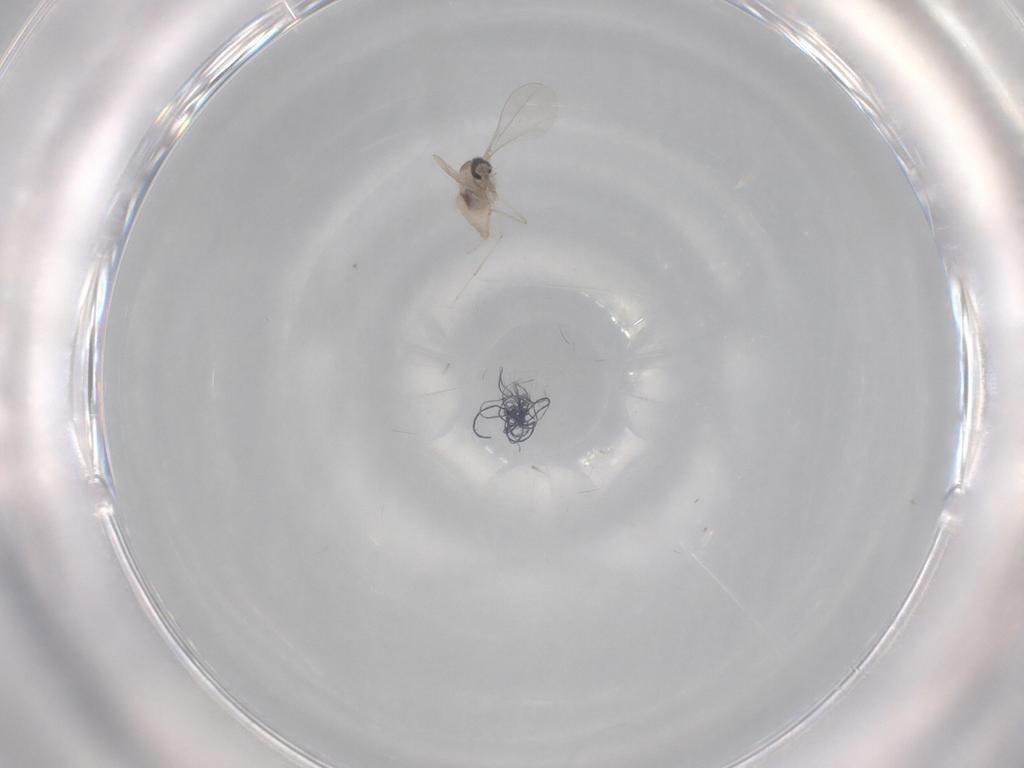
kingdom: Animalia
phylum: Arthropoda
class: Insecta
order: Diptera
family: Cecidomyiidae
